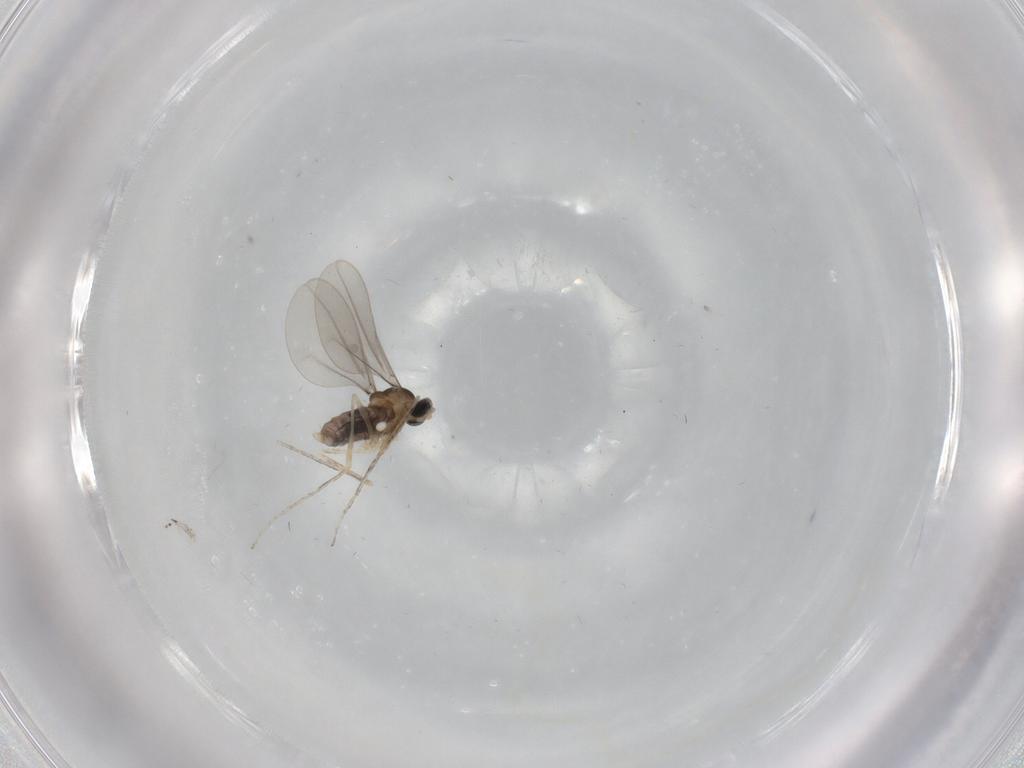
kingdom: Animalia
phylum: Arthropoda
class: Insecta
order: Diptera
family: Cecidomyiidae
